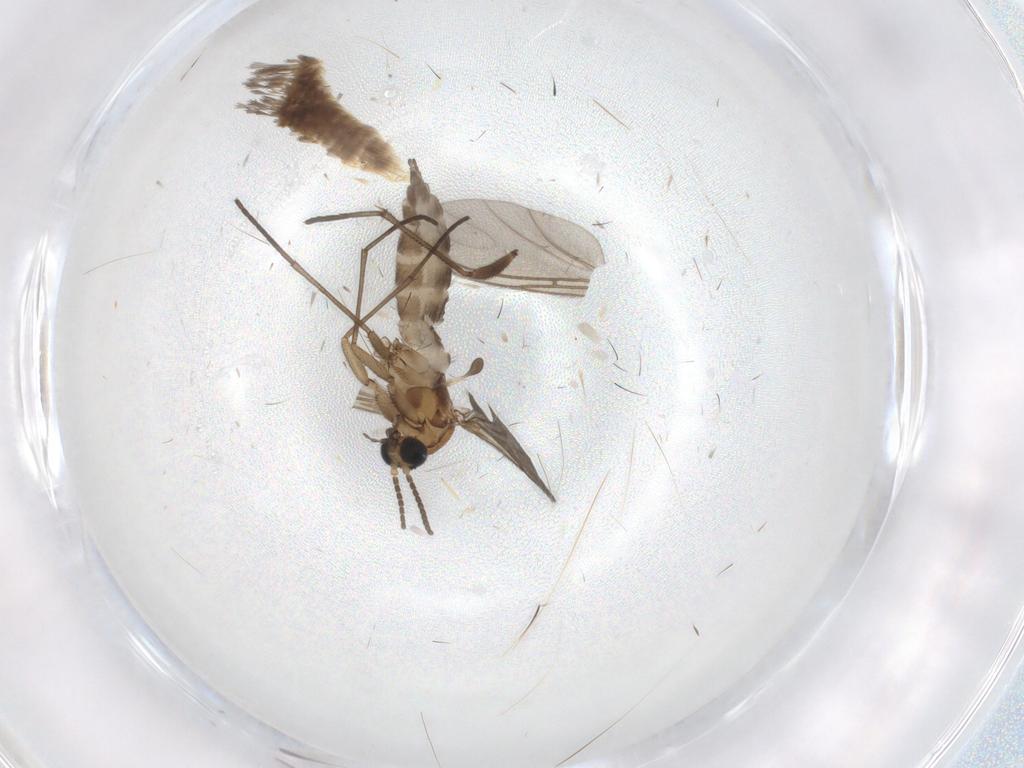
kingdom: Animalia
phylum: Arthropoda
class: Insecta
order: Diptera
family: Sciaridae
